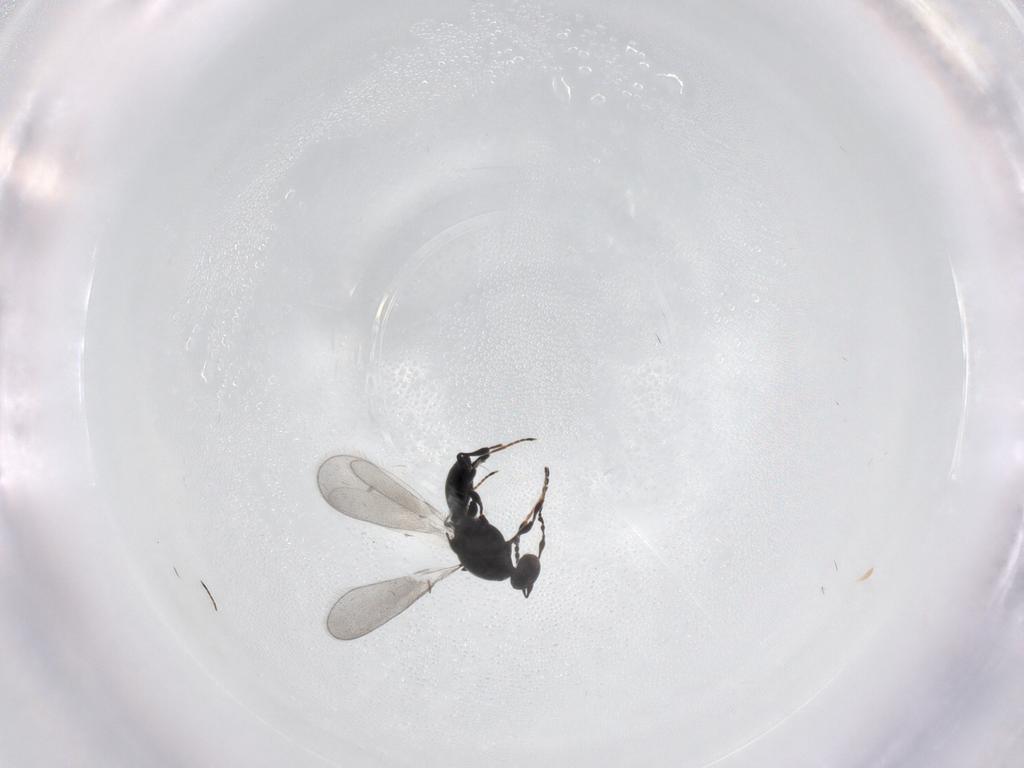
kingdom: Animalia
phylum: Arthropoda
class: Insecta
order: Hymenoptera
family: Platygastridae
